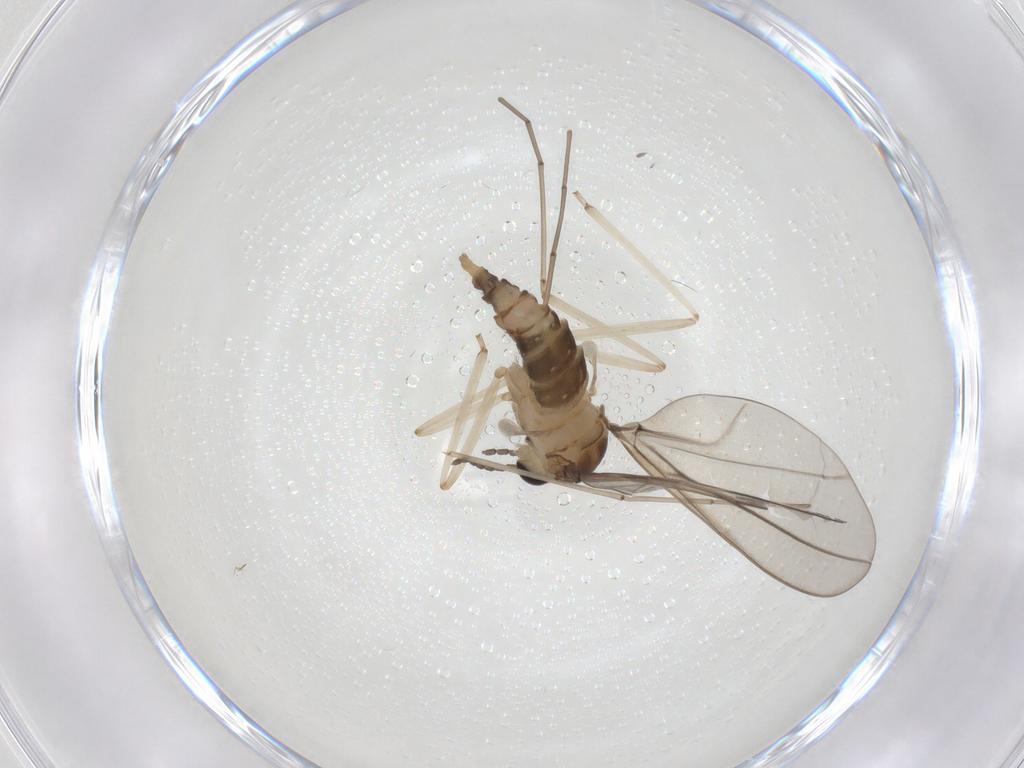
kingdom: Animalia
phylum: Arthropoda
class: Insecta
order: Diptera
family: Cecidomyiidae
